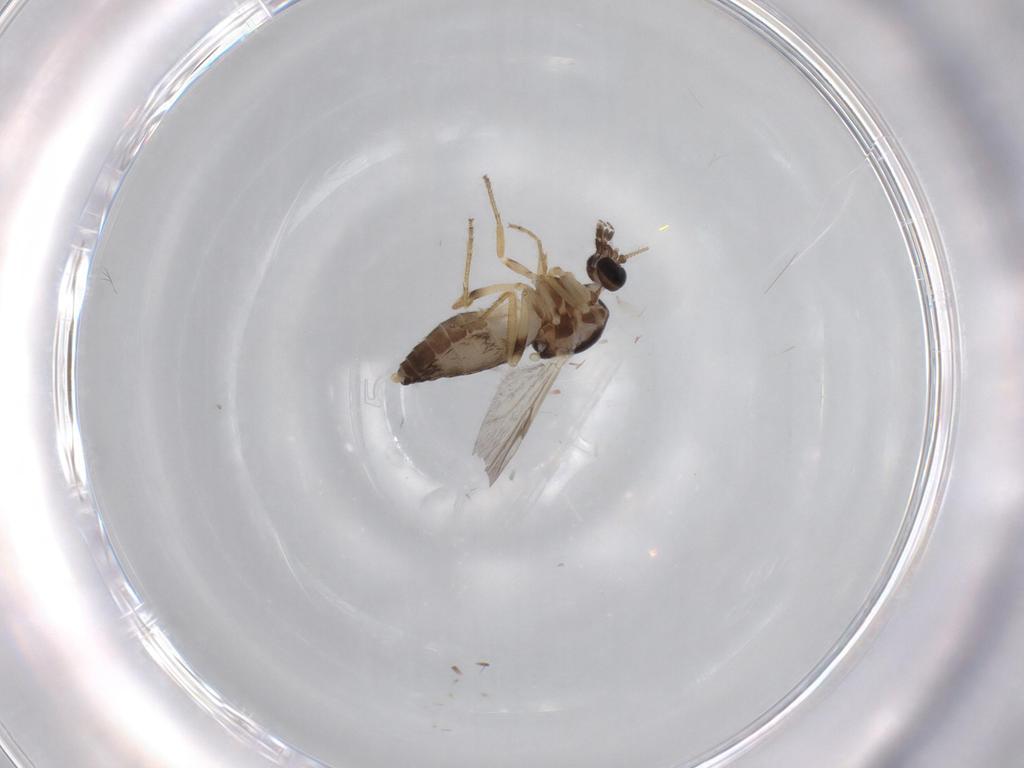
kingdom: Animalia
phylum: Arthropoda
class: Insecta
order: Diptera
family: Ceratopogonidae
